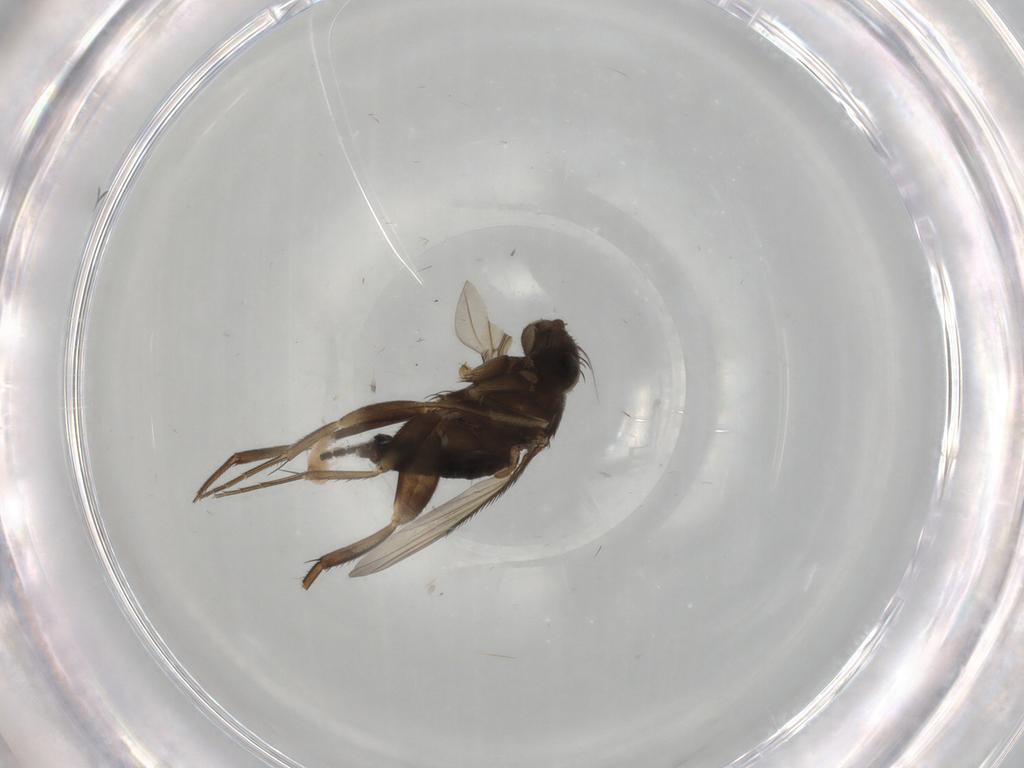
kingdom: Animalia
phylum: Arthropoda
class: Insecta
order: Diptera
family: Phoridae
